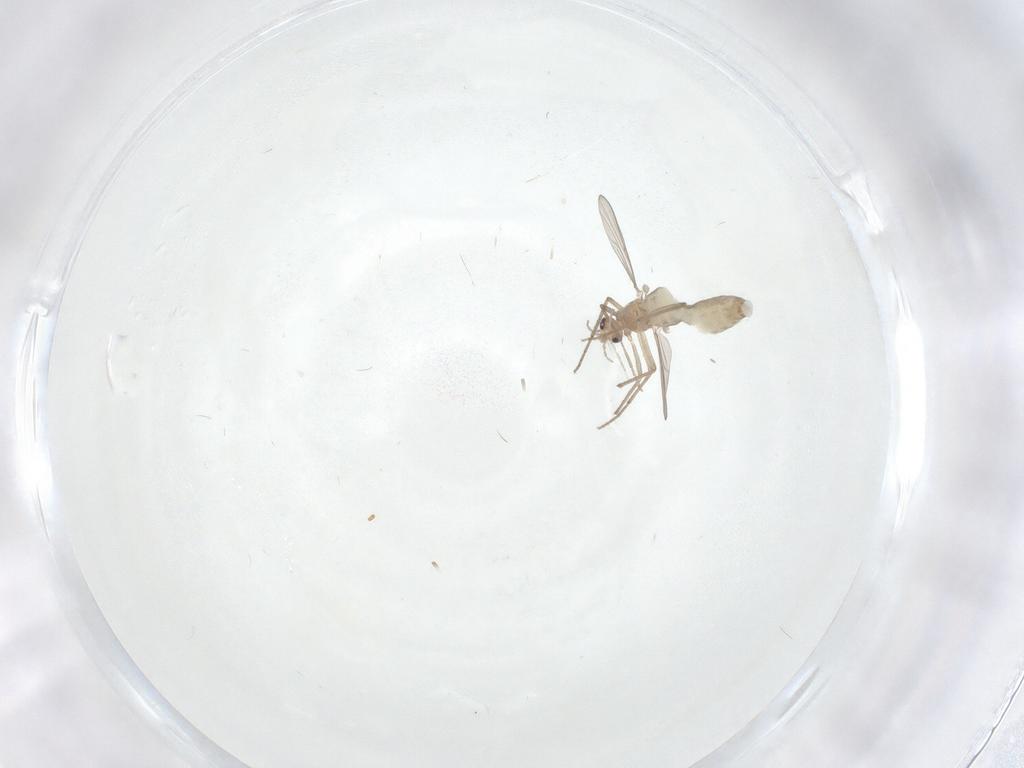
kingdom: Animalia
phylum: Arthropoda
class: Insecta
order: Diptera
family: Chironomidae
